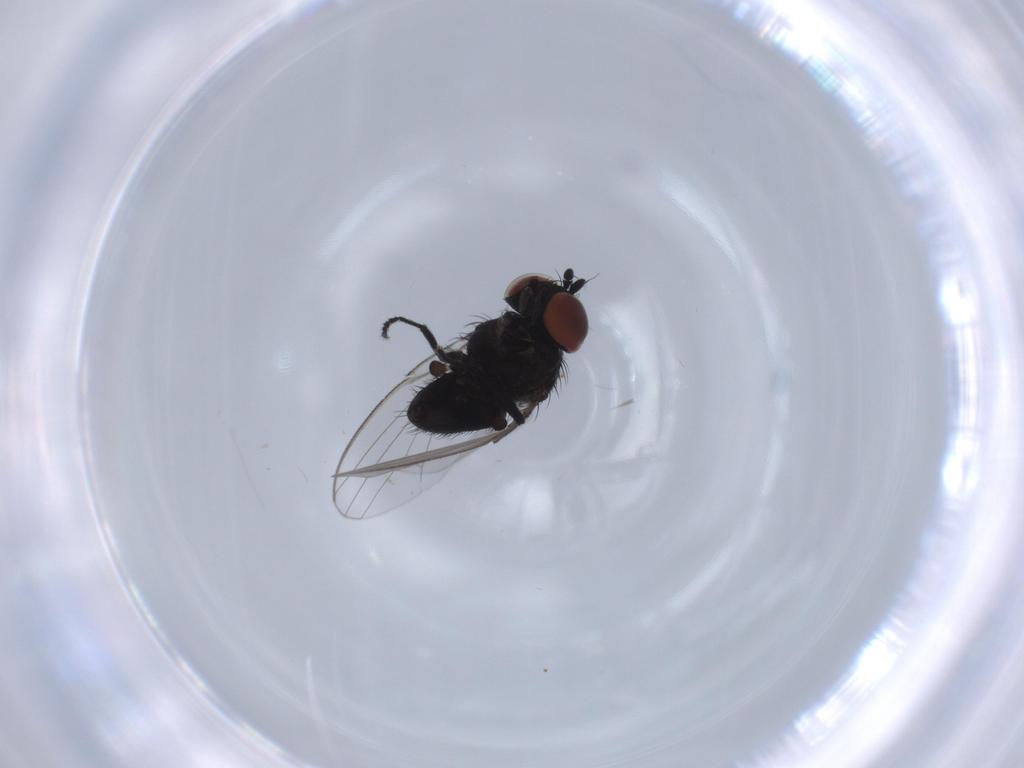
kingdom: Animalia
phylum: Arthropoda
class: Insecta
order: Diptera
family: Milichiidae
